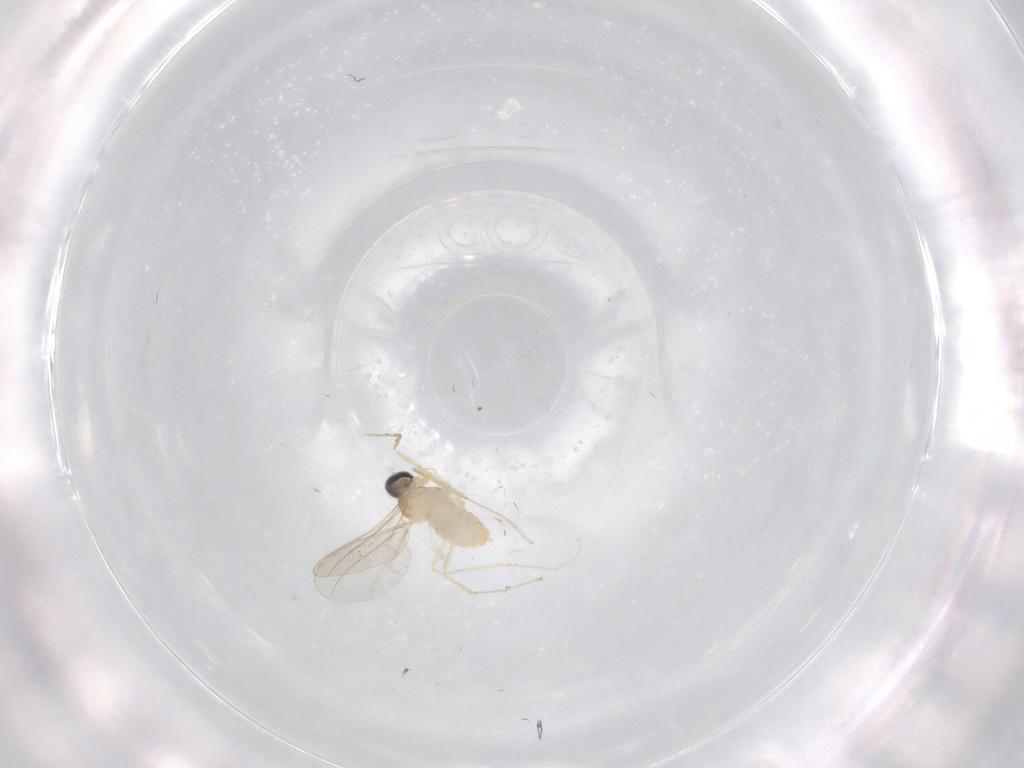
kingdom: Animalia
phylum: Arthropoda
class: Insecta
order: Diptera
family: Cecidomyiidae
